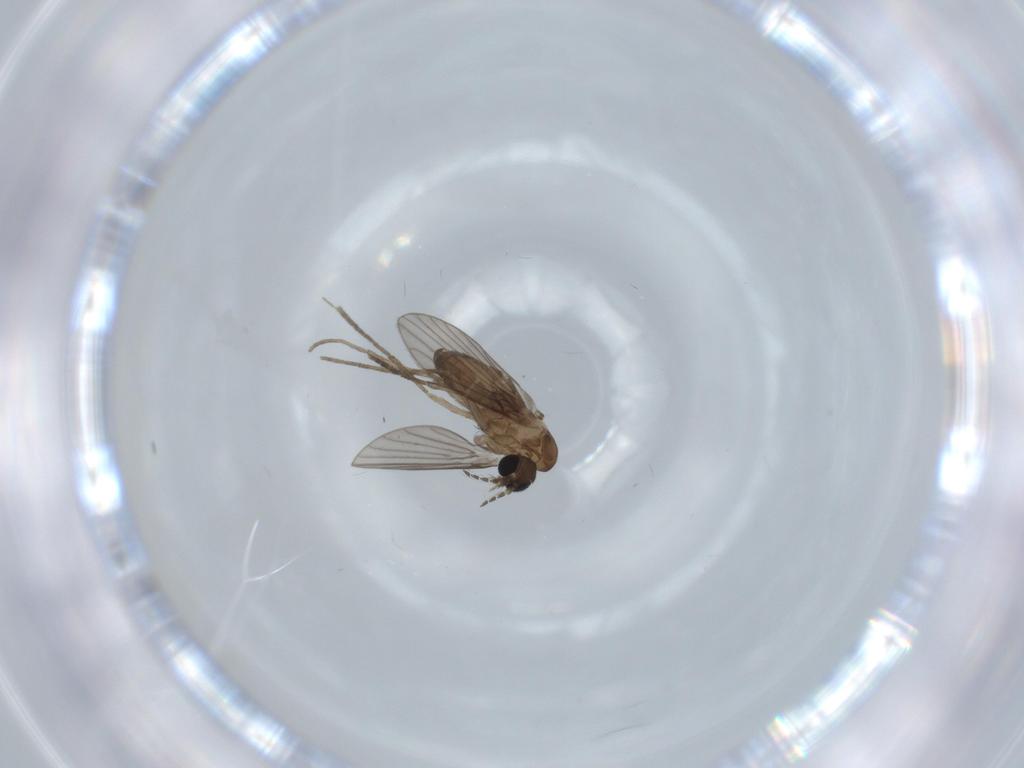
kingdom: Animalia
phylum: Arthropoda
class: Insecta
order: Diptera
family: Psychodidae
